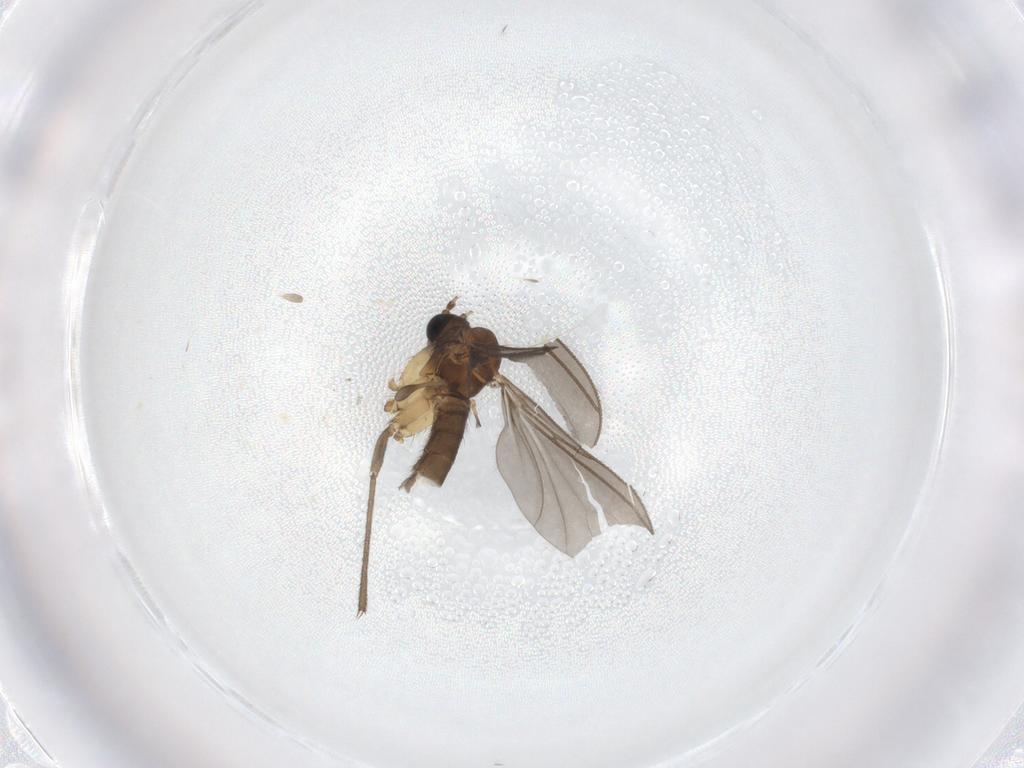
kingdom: Animalia
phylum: Arthropoda
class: Insecta
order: Diptera
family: Sciaridae
